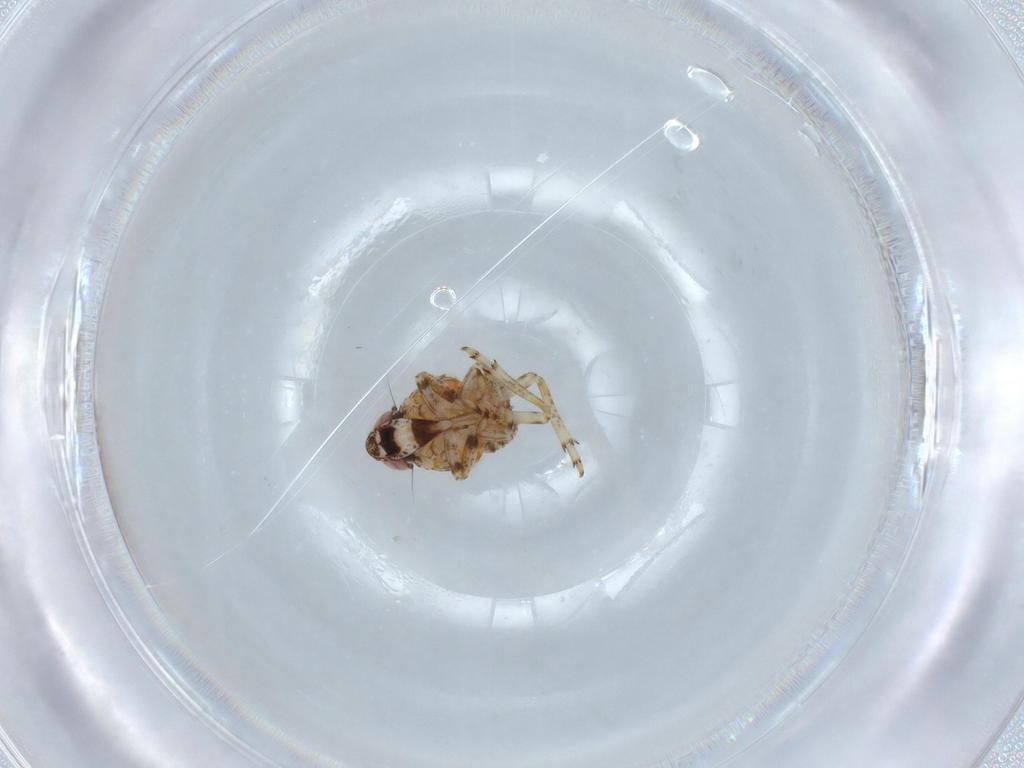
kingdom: Animalia
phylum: Arthropoda
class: Insecta
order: Hemiptera
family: Issidae
